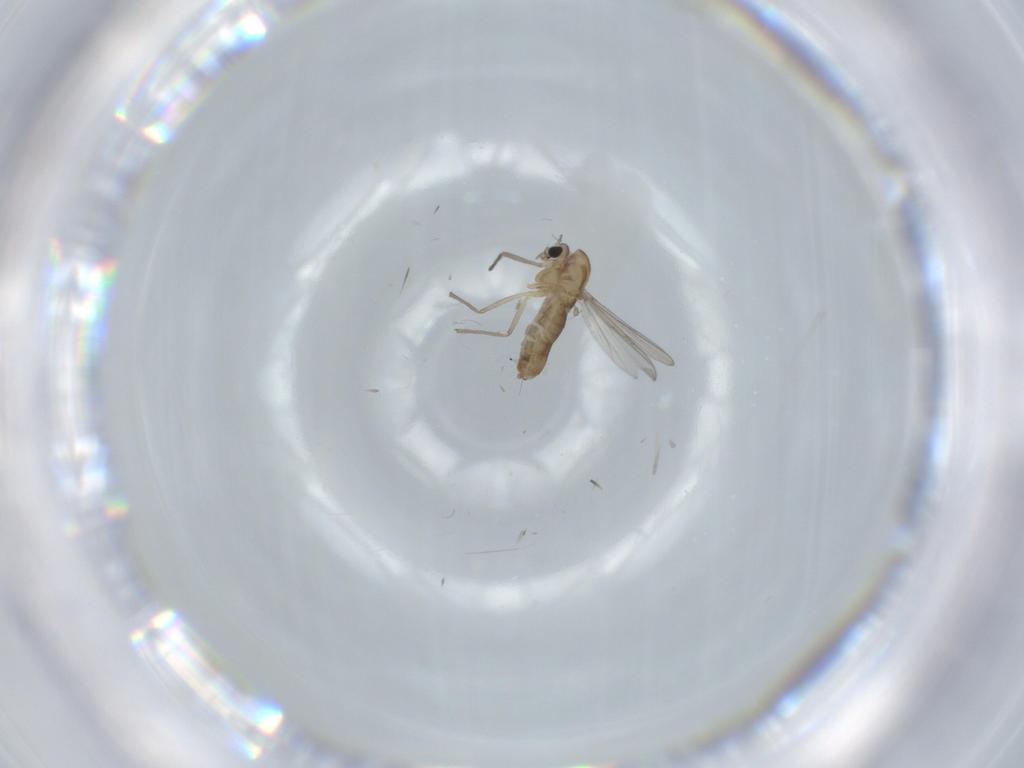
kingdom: Animalia
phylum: Arthropoda
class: Insecta
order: Diptera
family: Chironomidae
